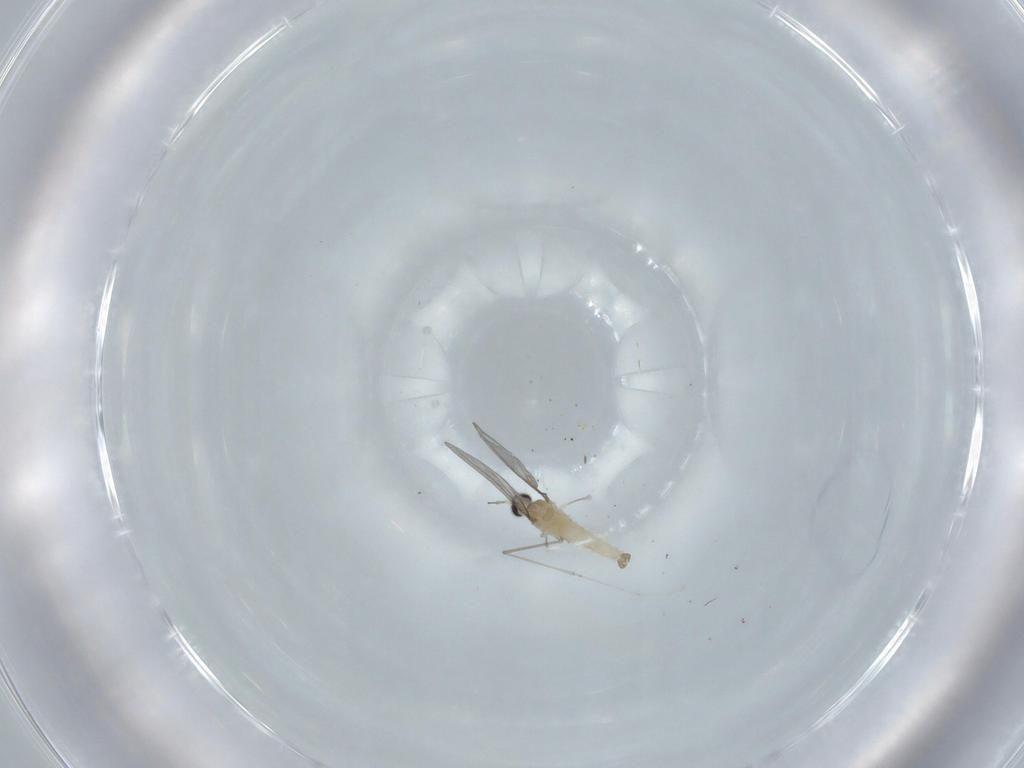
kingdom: Animalia
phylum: Arthropoda
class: Insecta
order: Diptera
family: Cecidomyiidae
